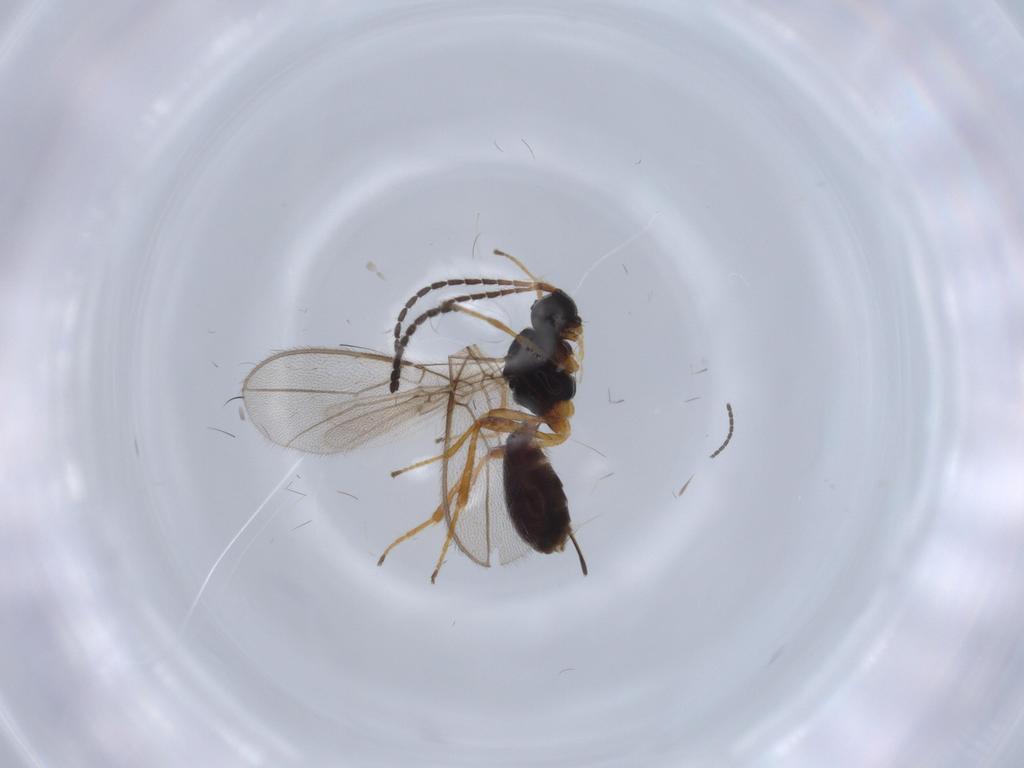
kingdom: Animalia
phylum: Arthropoda
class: Insecta
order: Hymenoptera
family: Braconidae
